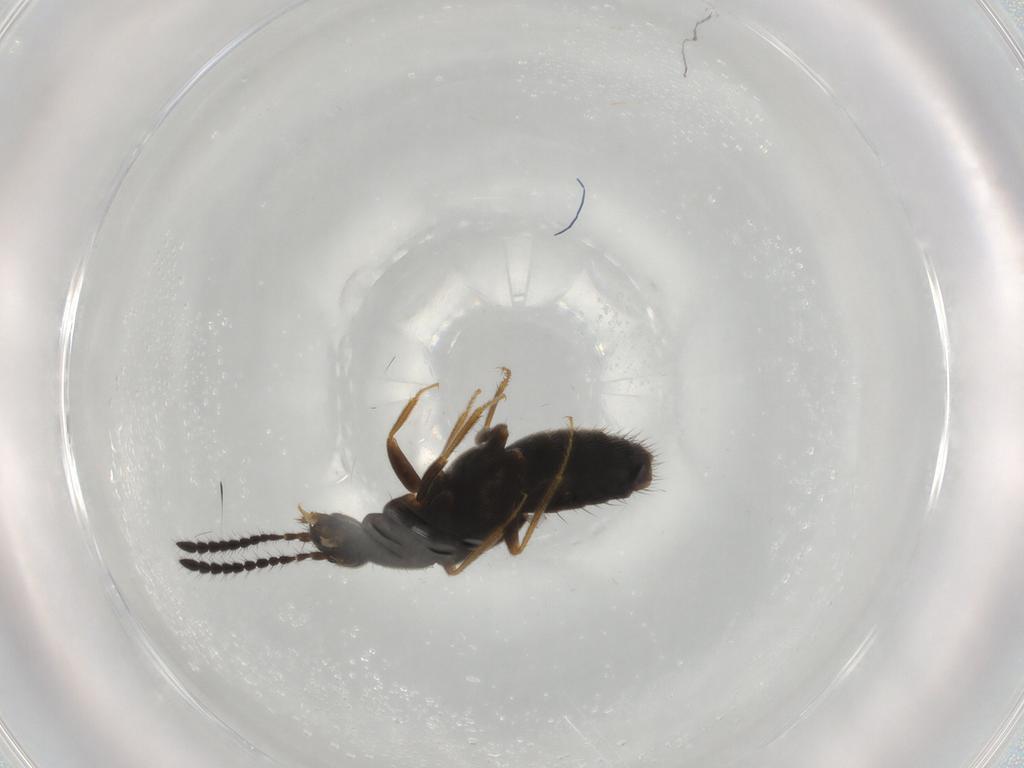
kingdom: Animalia
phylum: Arthropoda
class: Insecta
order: Coleoptera
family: Staphylinidae
